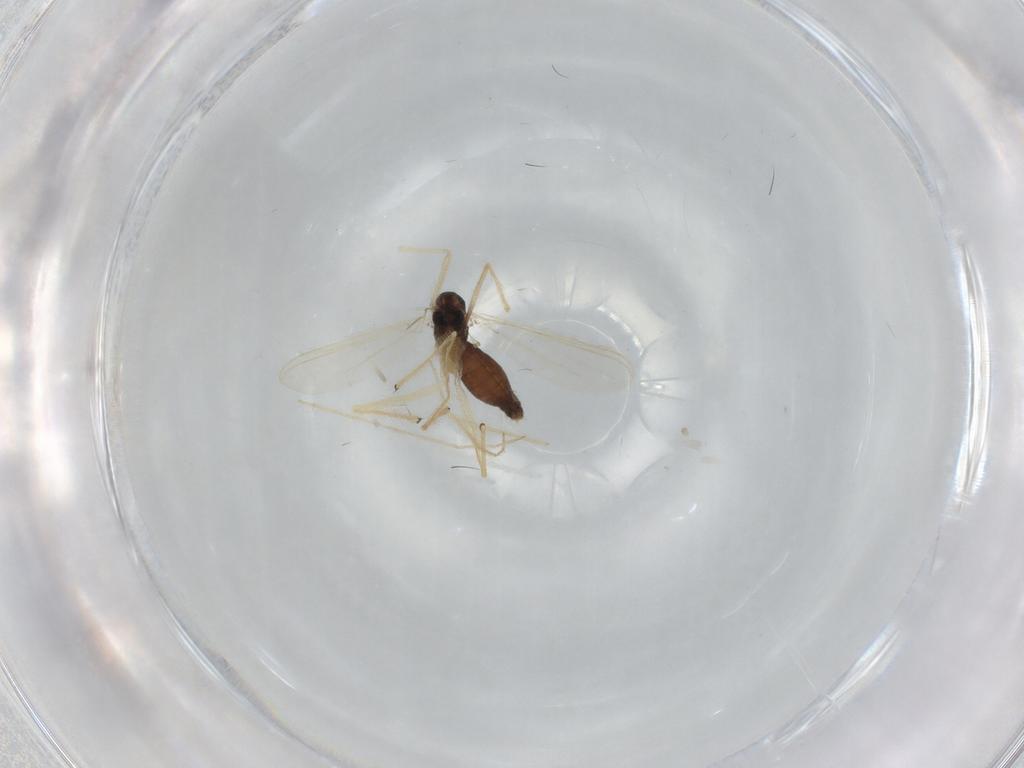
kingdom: Animalia
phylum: Arthropoda
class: Insecta
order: Diptera
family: Chironomidae
